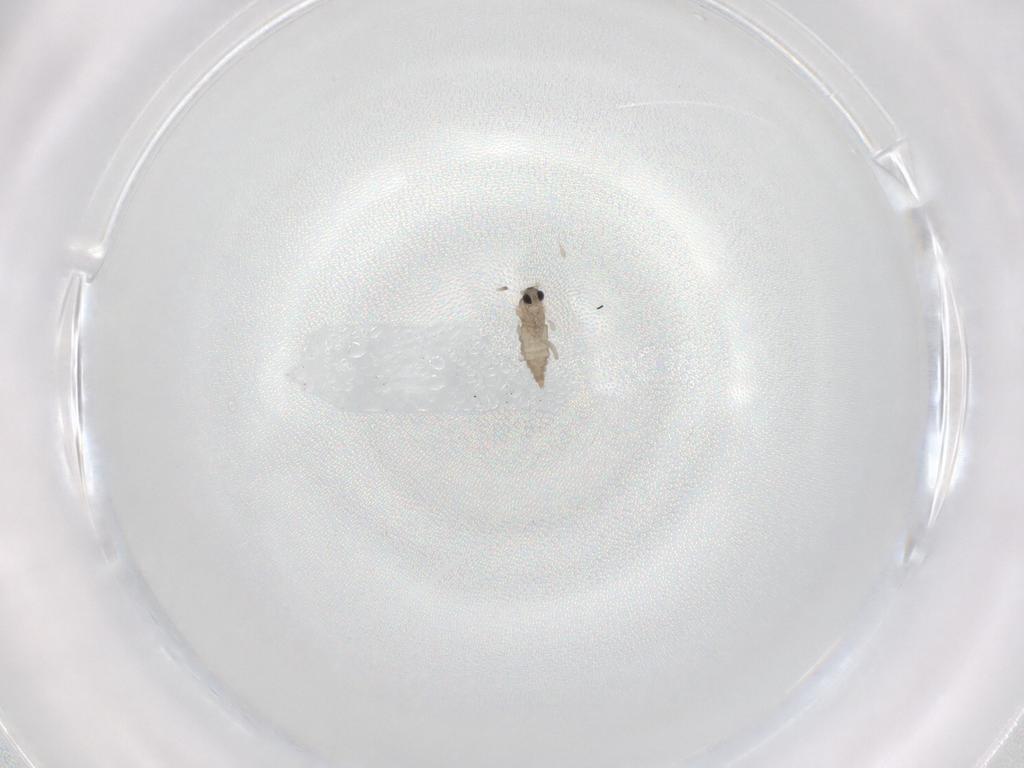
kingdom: Animalia
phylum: Arthropoda
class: Insecta
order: Diptera
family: Cecidomyiidae
